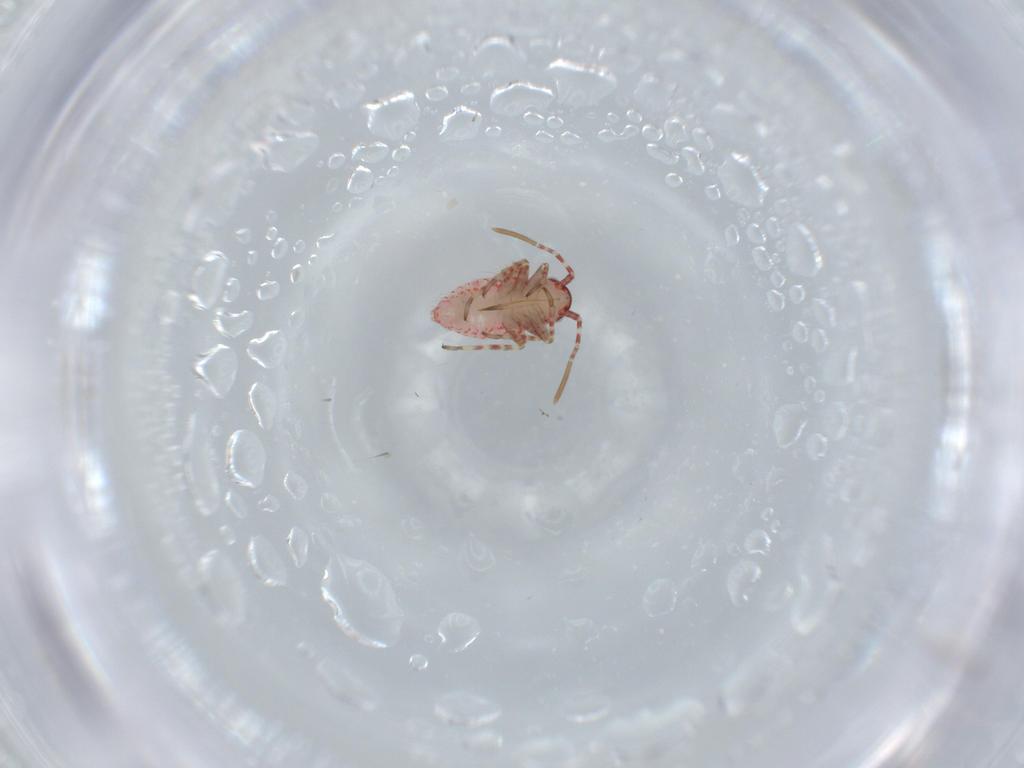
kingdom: Animalia
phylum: Arthropoda
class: Insecta
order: Hemiptera
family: Miridae
